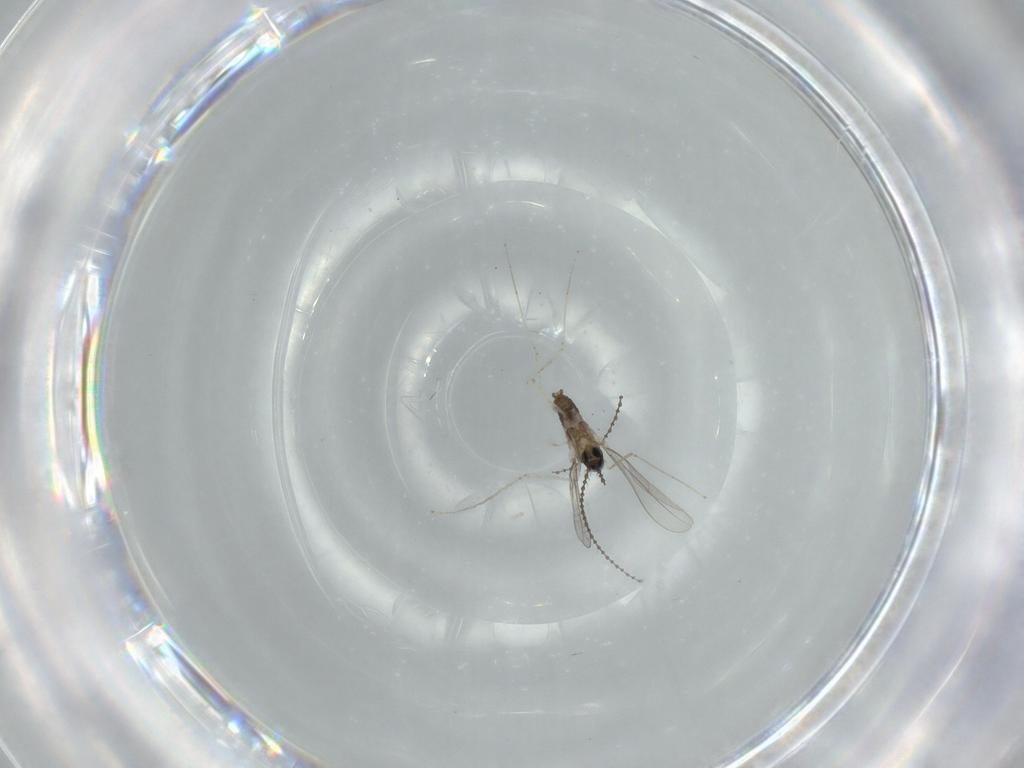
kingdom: Animalia
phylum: Arthropoda
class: Insecta
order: Diptera
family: Cecidomyiidae
